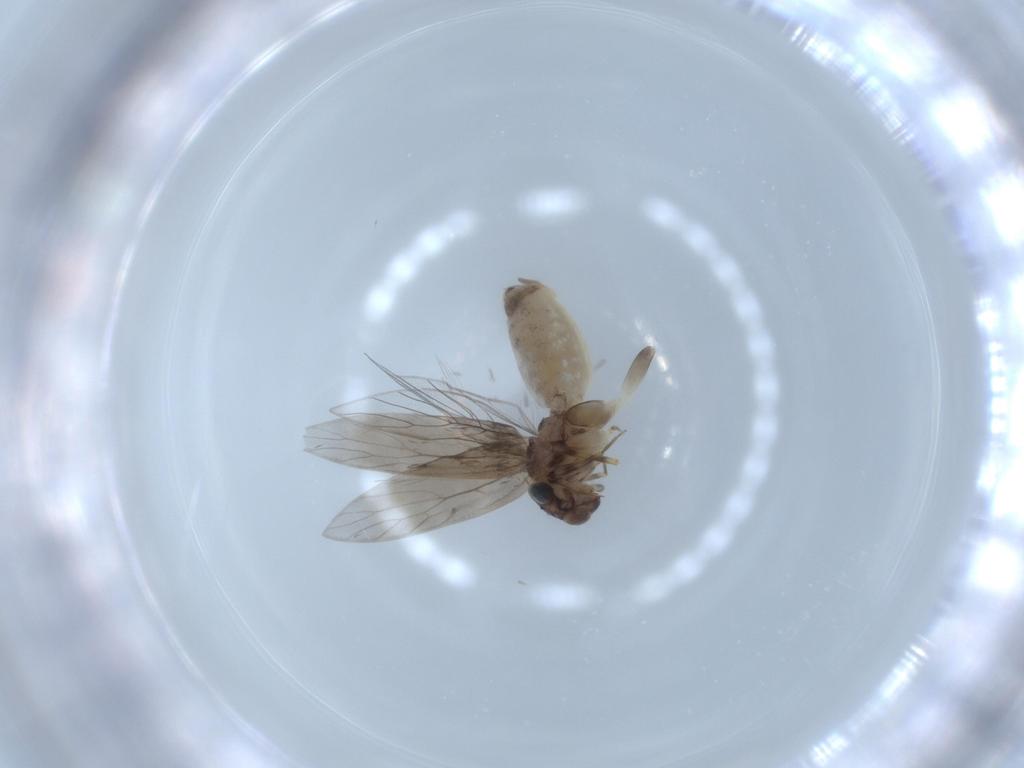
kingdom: Animalia
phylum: Arthropoda
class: Insecta
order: Psocodea
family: Lepidopsocidae
